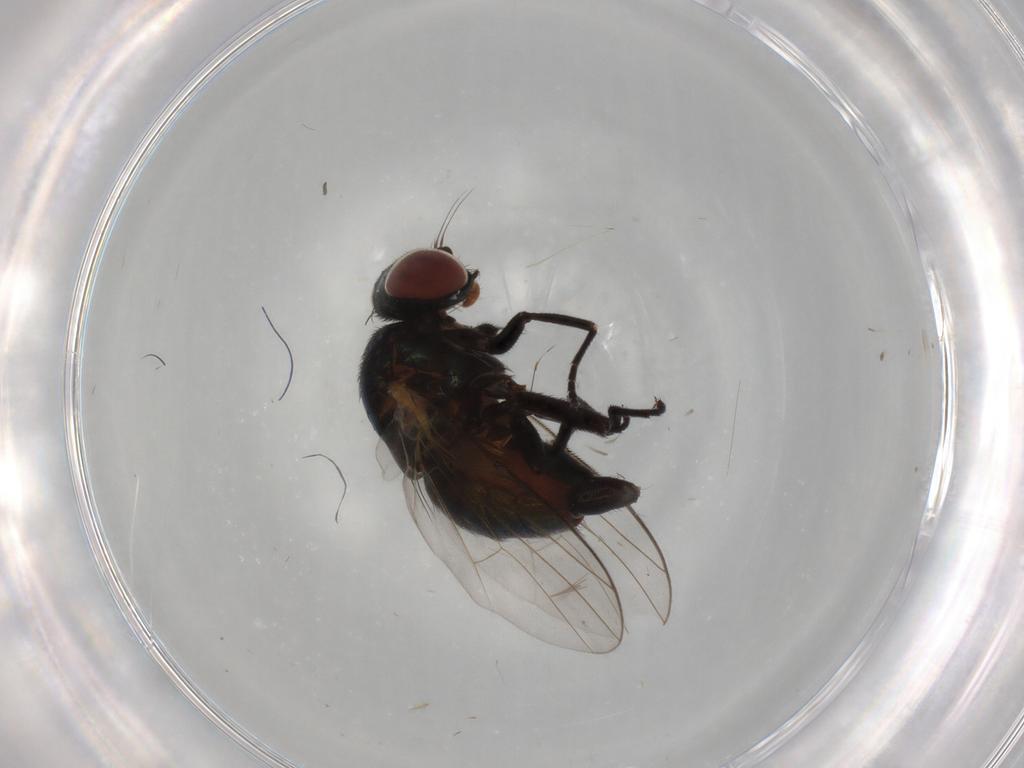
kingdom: Animalia
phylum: Arthropoda
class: Insecta
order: Diptera
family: Agromyzidae
